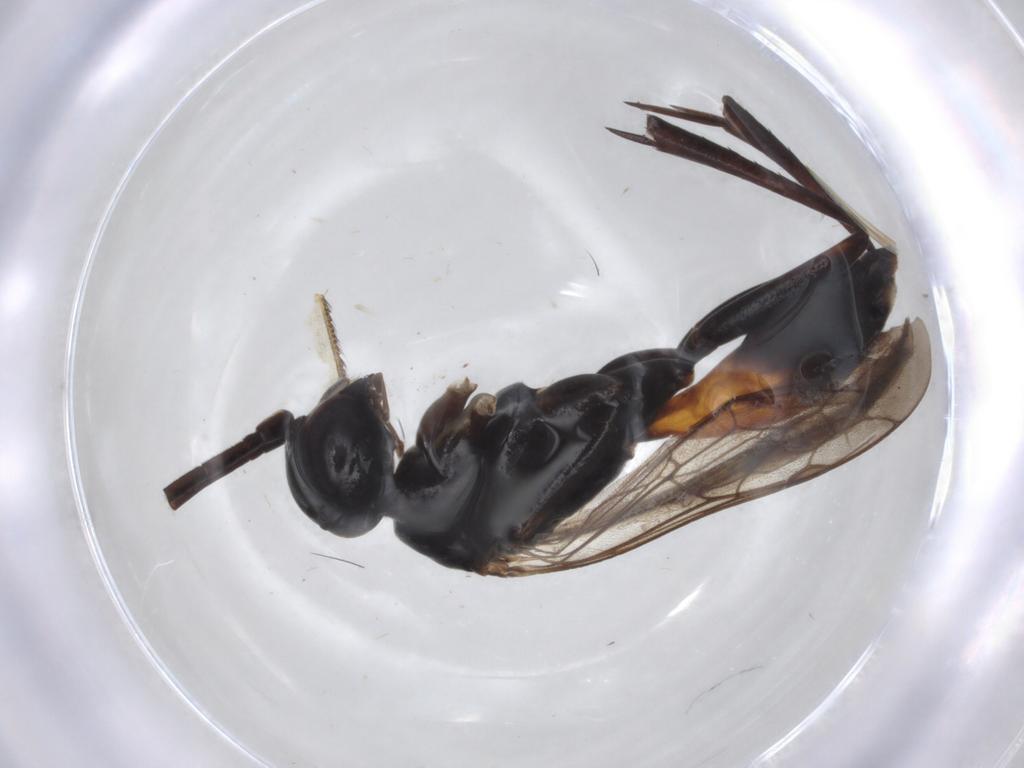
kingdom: Animalia
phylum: Arthropoda
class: Insecta
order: Hymenoptera
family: Pompilidae
